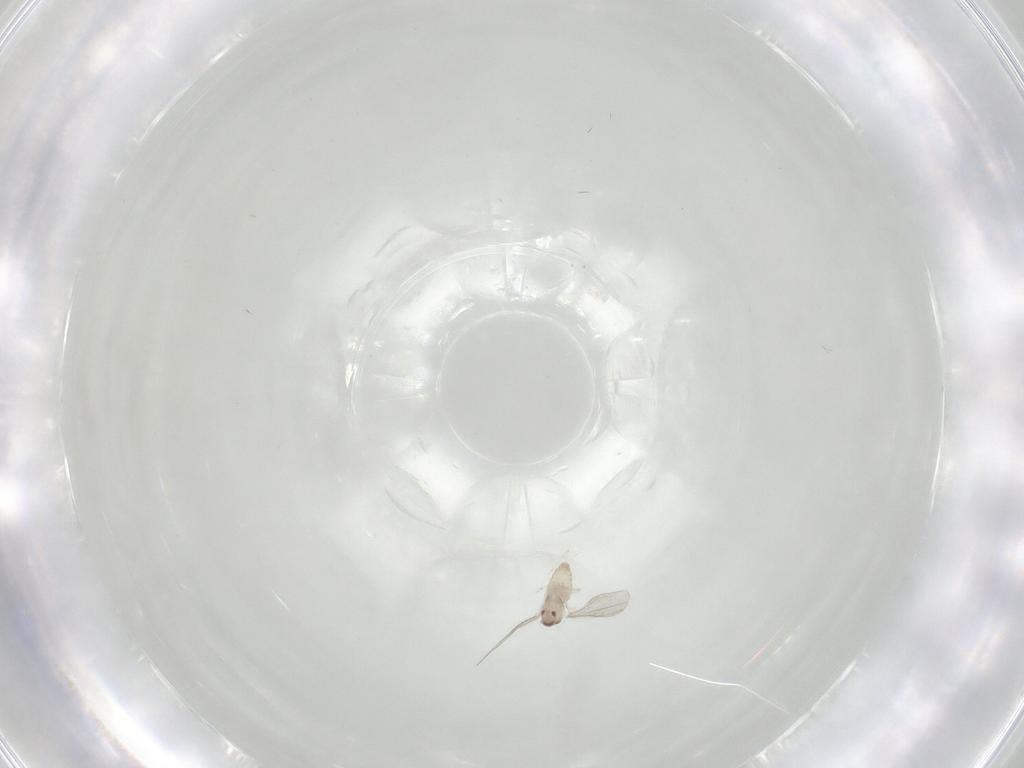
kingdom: Animalia
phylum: Arthropoda
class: Insecta
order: Diptera
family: Cecidomyiidae
